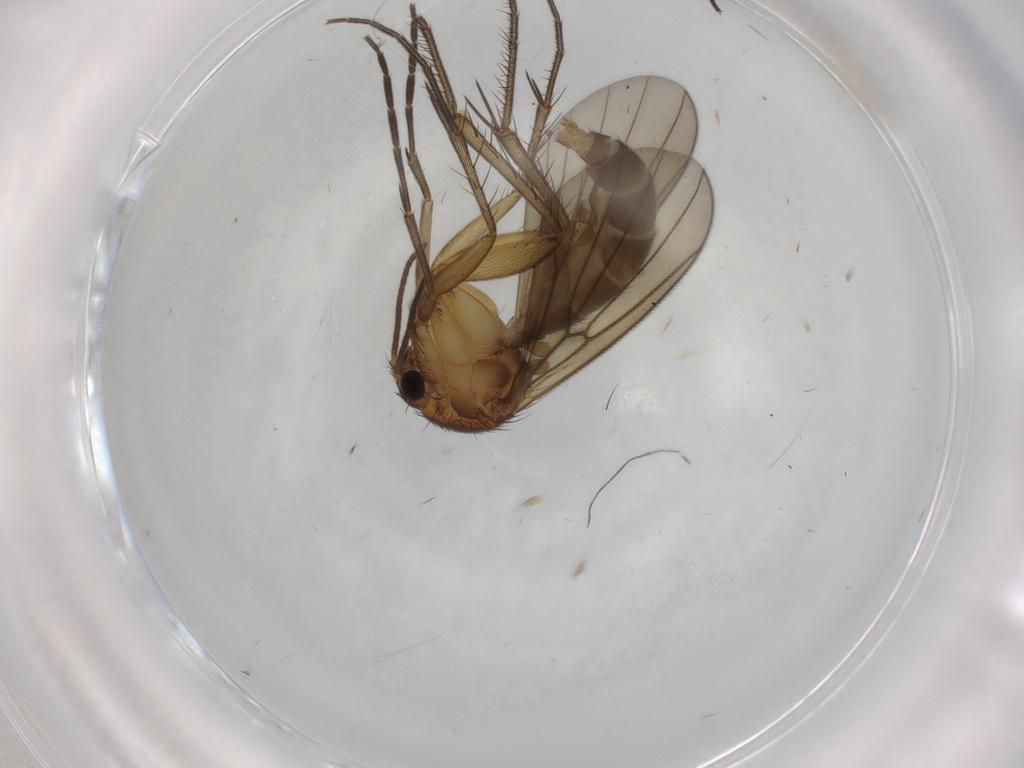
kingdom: Animalia
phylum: Arthropoda
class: Insecta
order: Diptera
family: Mycetophilidae
